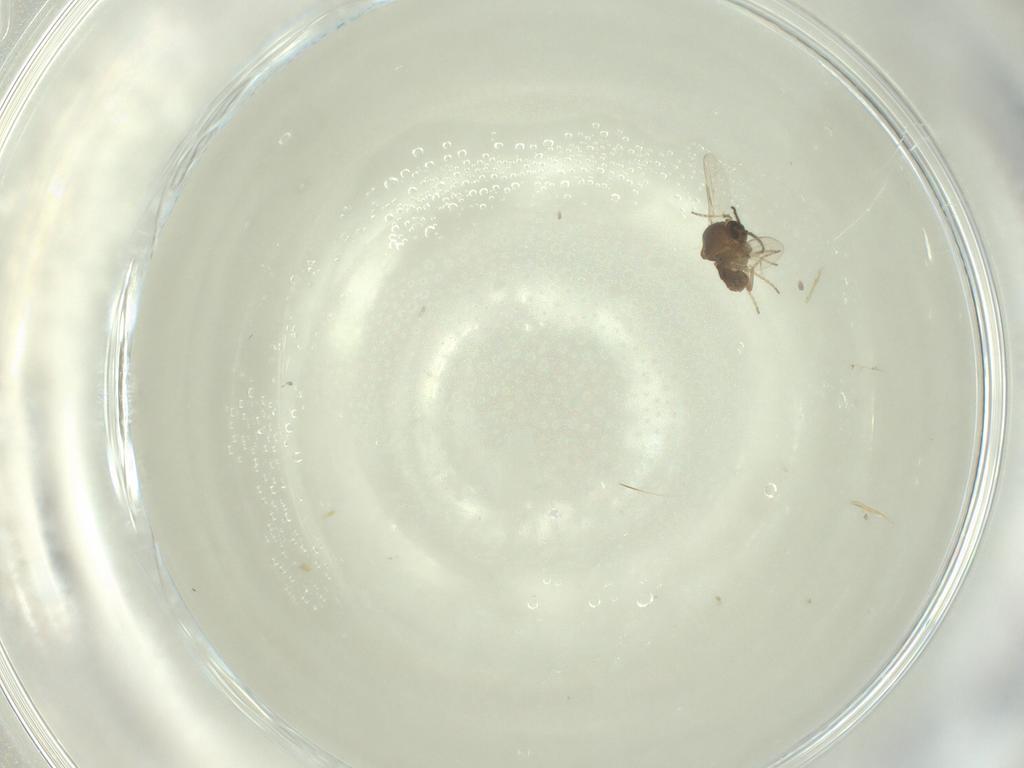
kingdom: Animalia
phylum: Arthropoda
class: Insecta
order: Diptera
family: Ceratopogonidae
